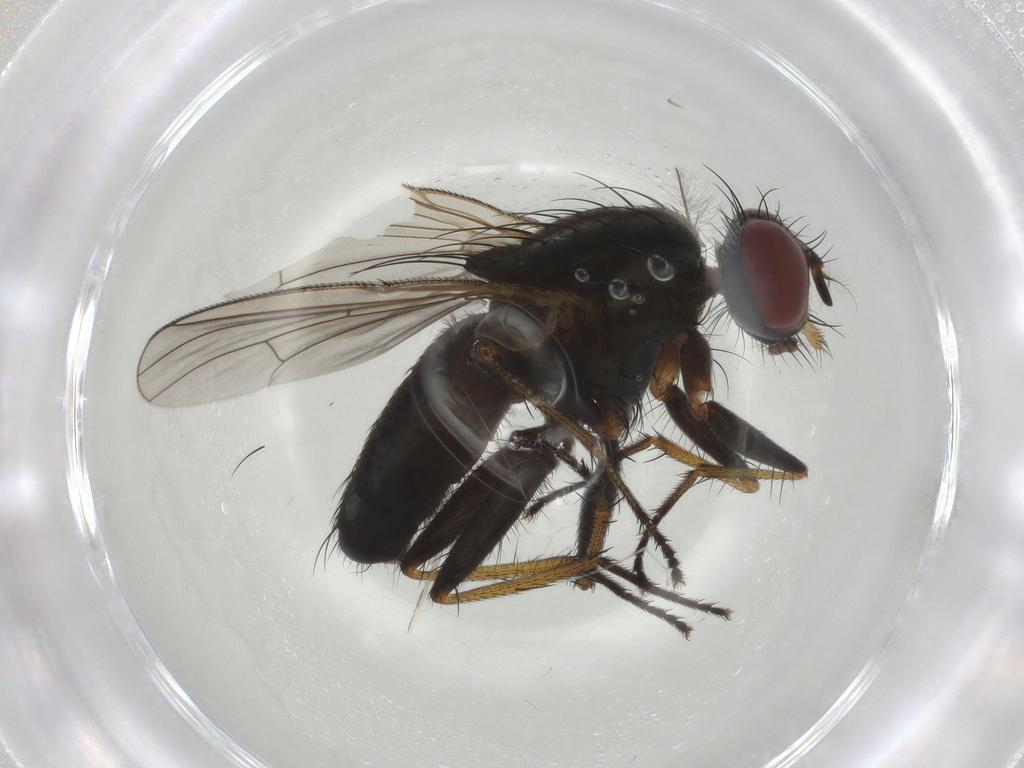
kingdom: Animalia
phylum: Arthropoda
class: Insecta
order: Diptera
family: Muscidae
